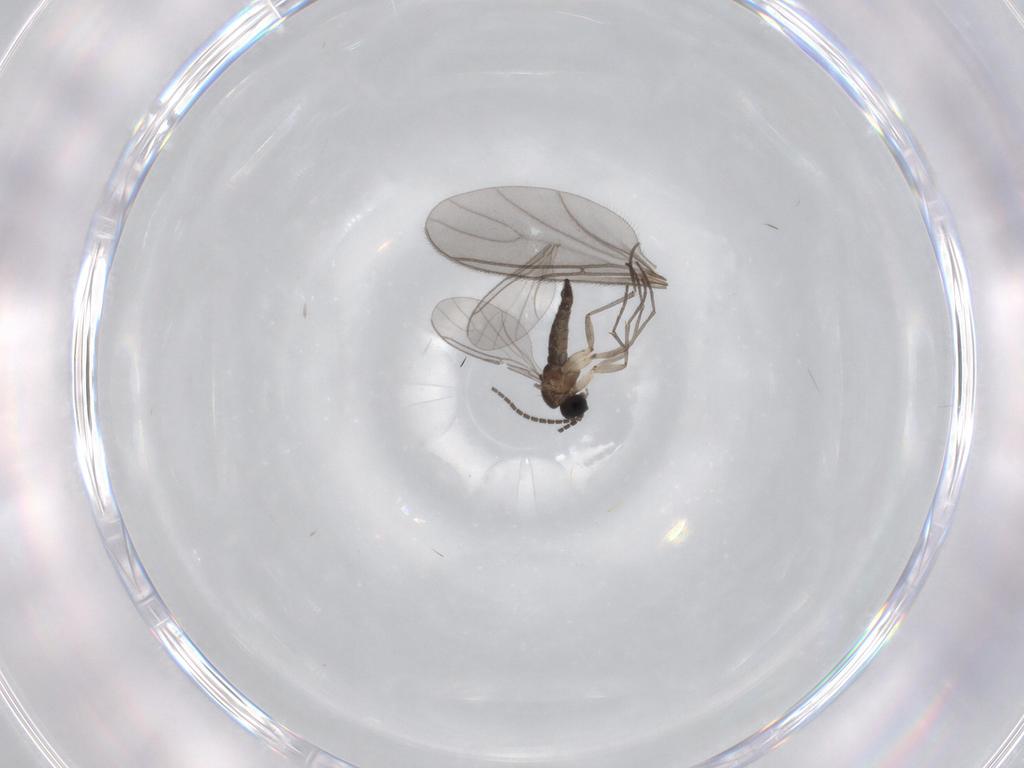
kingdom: Animalia
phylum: Arthropoda
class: Insecta
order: Diptera
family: Sciaridae
